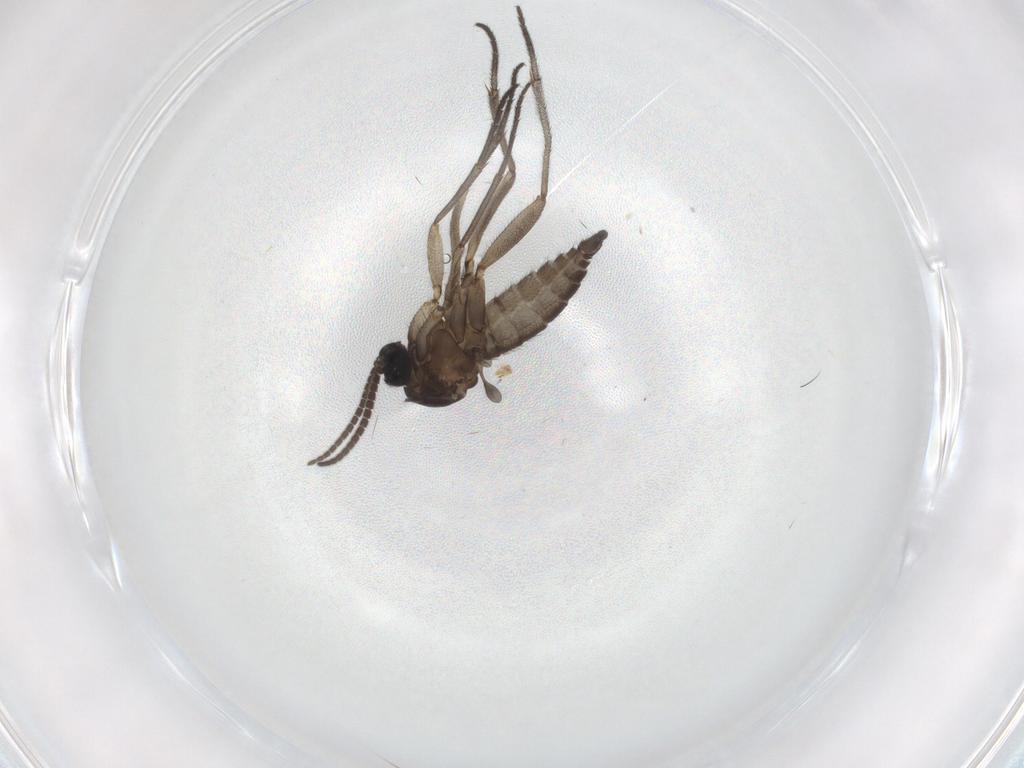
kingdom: Animalia
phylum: Arthropoda
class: Insecta
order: Diptera
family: Sciaridae
